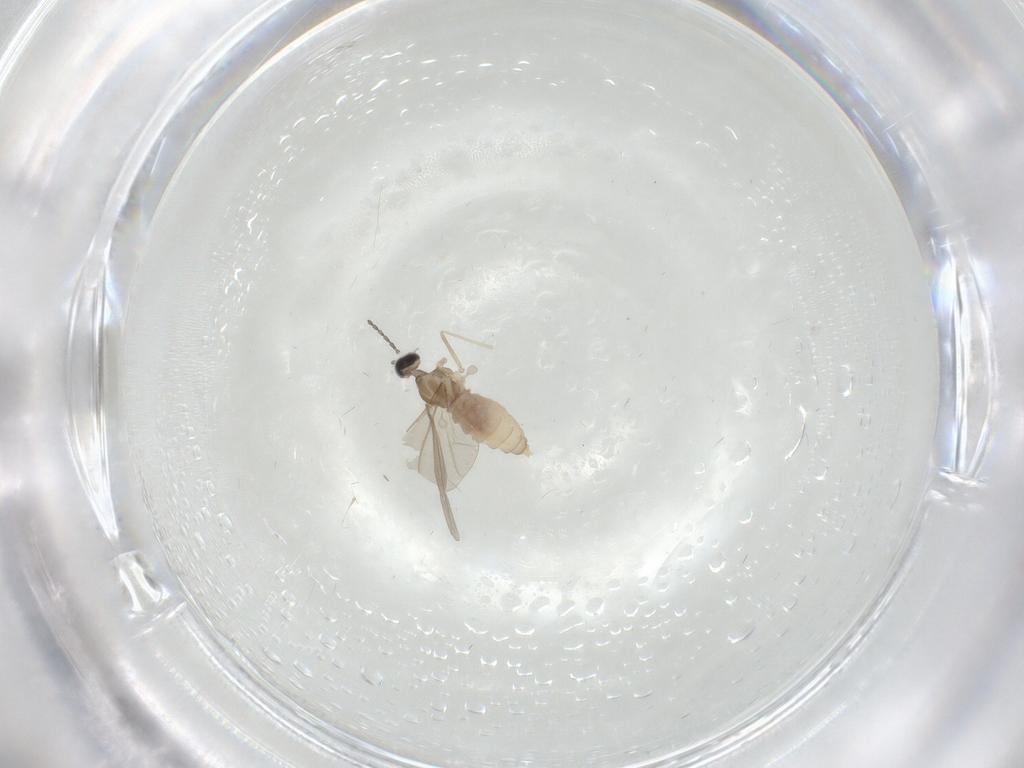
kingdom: Animalia
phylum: Arthropoda
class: Insecta
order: Diptera
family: Cecidomyiidae
